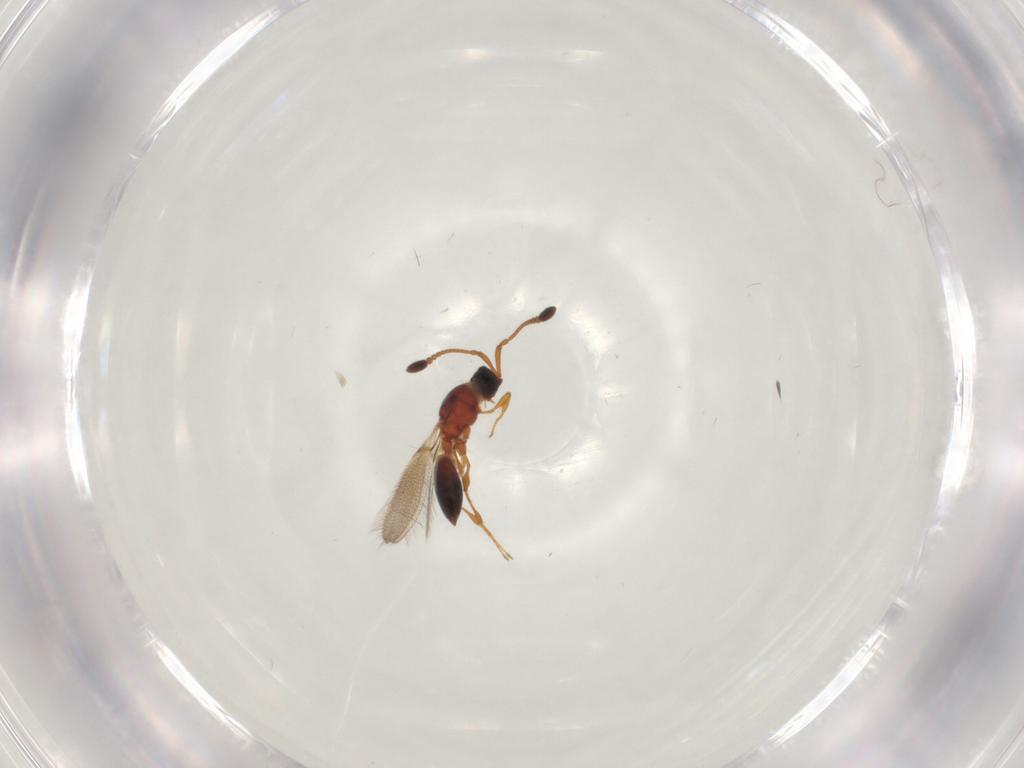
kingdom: Animalia
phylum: Arthropoda
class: Insecta
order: Hymenoptera
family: Diapriidae
